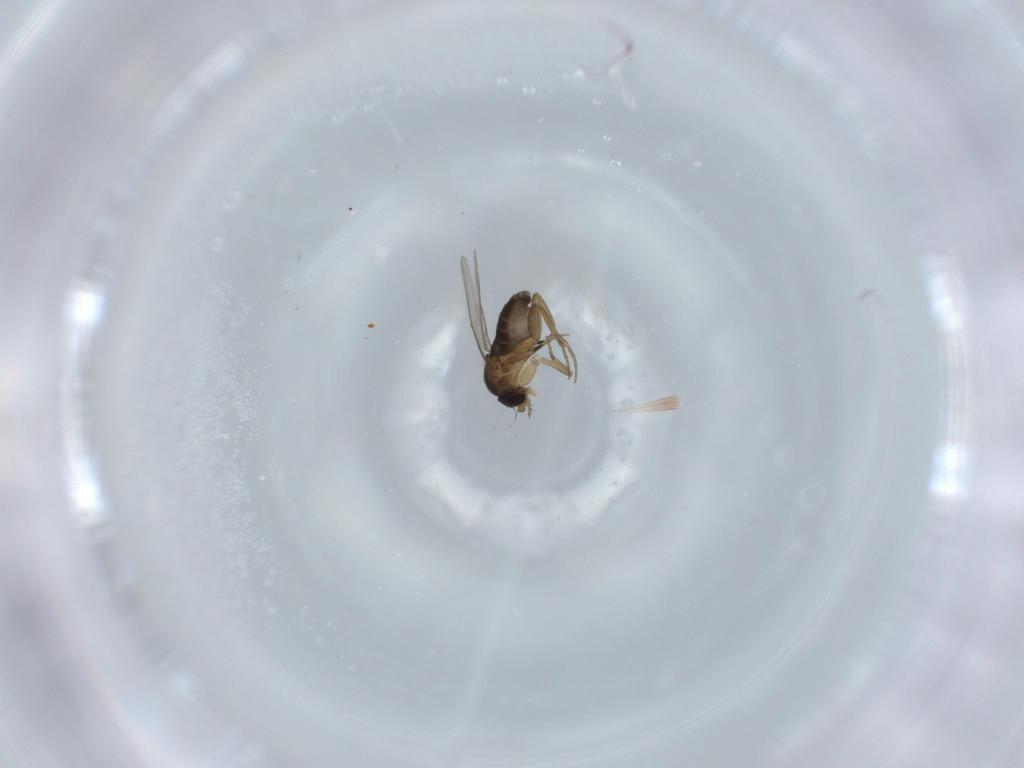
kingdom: Animalia
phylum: Arthropoda
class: Insecta
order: Diptera
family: Phoridae
